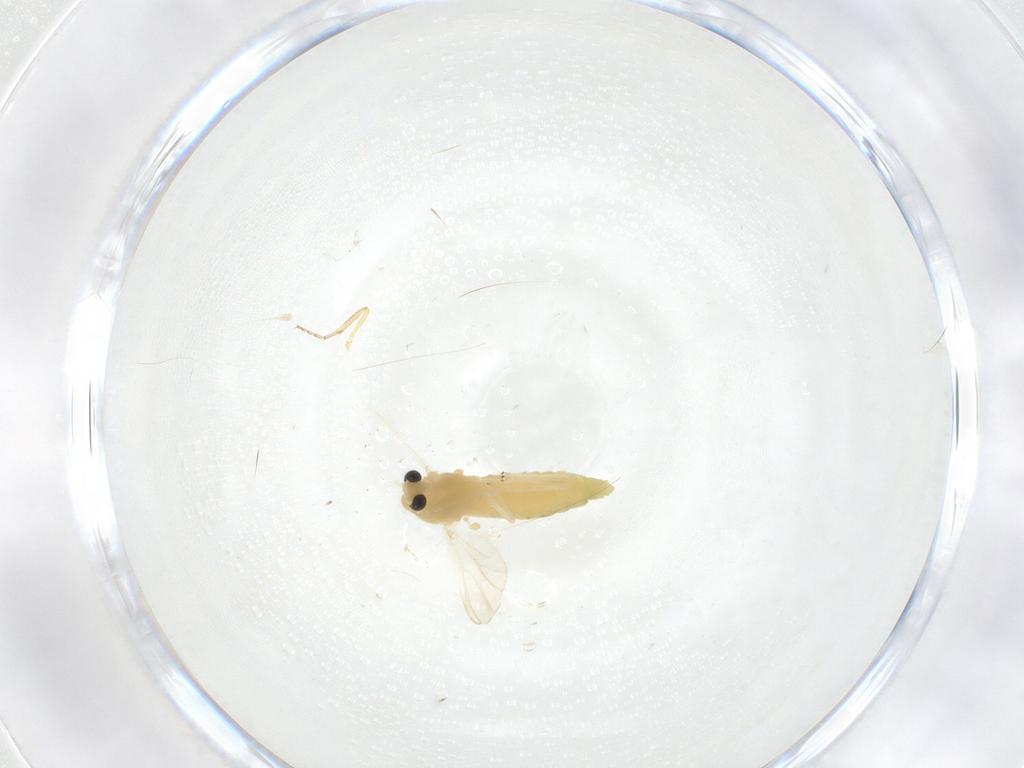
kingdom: Animalia
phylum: Arthropoda
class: Insecta
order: Diptera
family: Chironomidae
